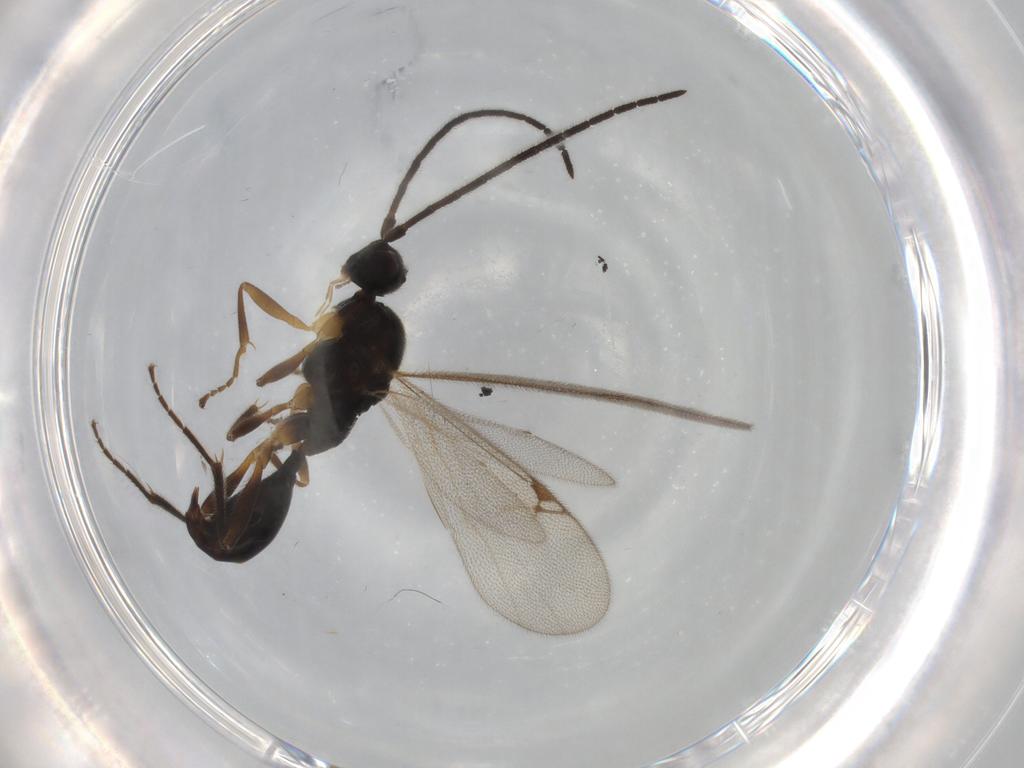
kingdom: Animalia
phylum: Arthropoda
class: Insecta
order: Hymenoptera
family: Proctotrupidae
